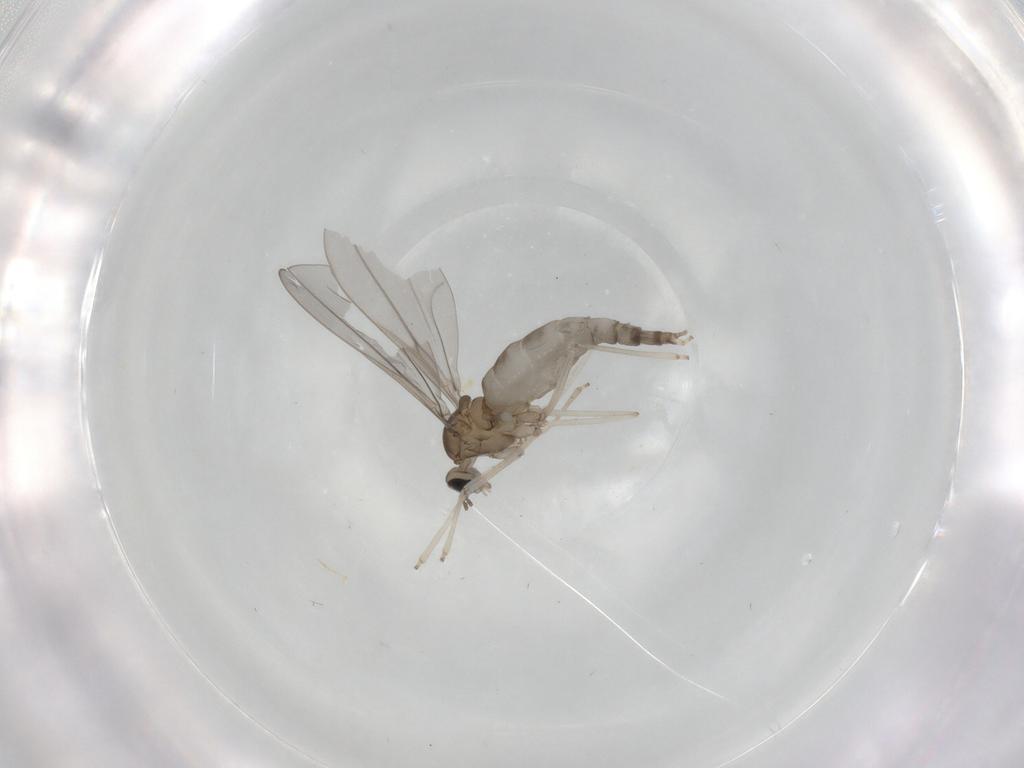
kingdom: Animalia
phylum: Arthropoda
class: Insecta
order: Diptera
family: Cecidomyiidae
